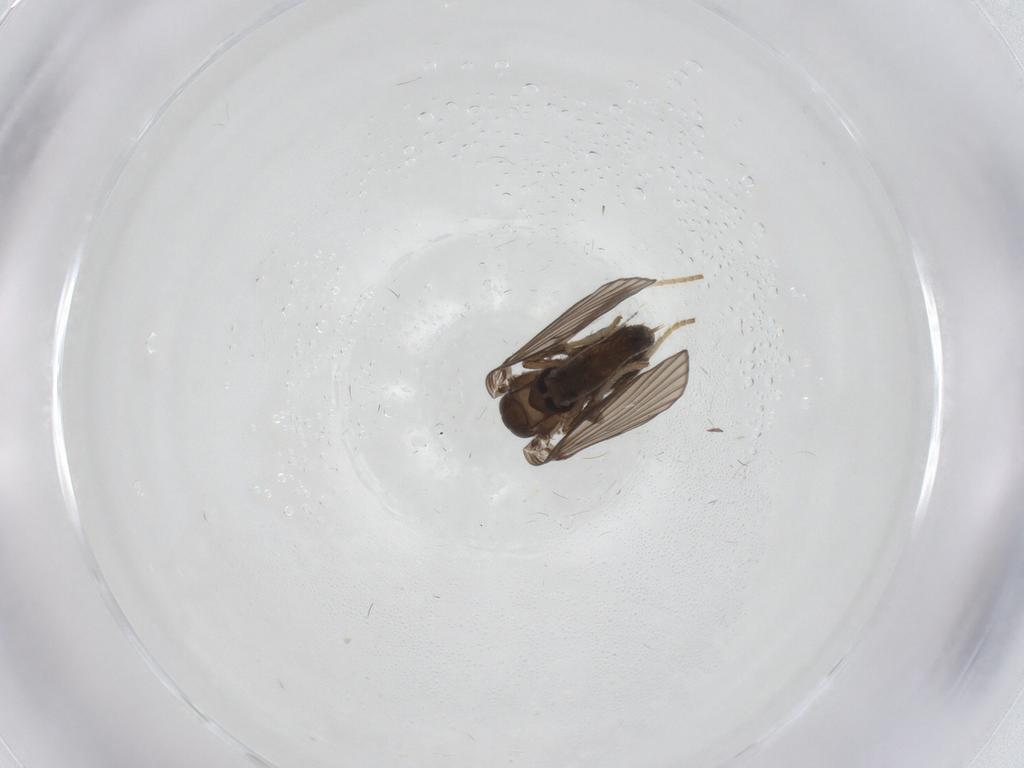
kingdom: Animalia
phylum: Arthropoda
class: Insecta
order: Diptera
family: Psychodidae
